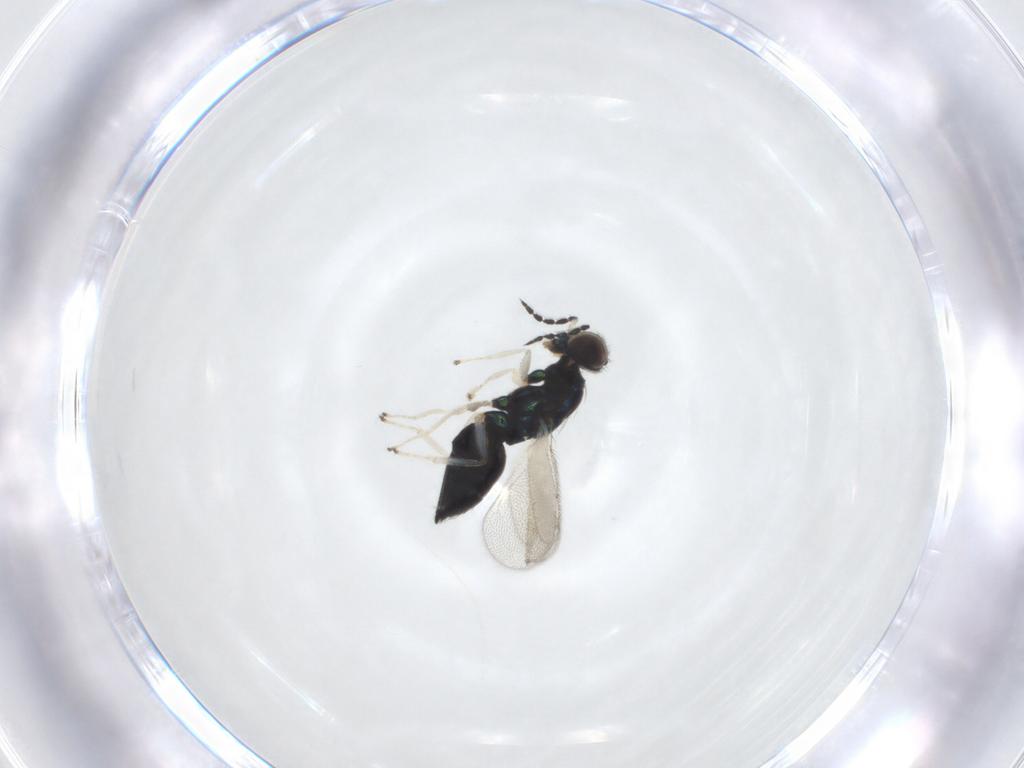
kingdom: Animalia
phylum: Arthropoda
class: Insecta
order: Hymenoptera
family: Eulophidae
